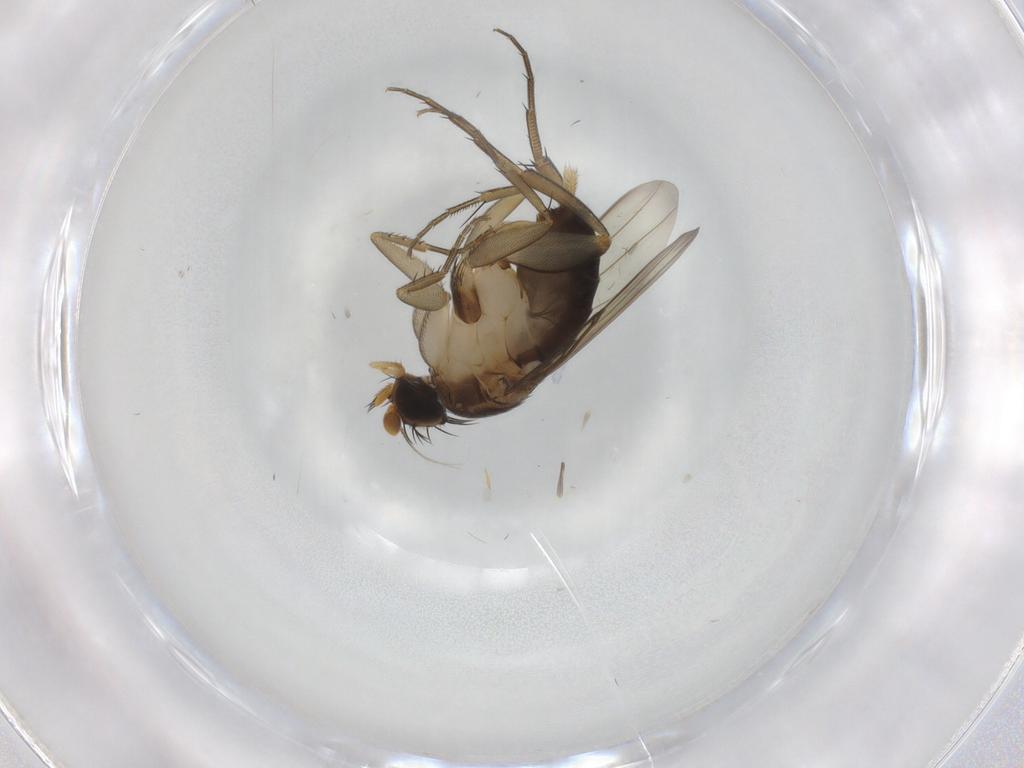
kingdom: Animalia
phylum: Arthropoda
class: Insecta
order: Diptera
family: Phoridae
